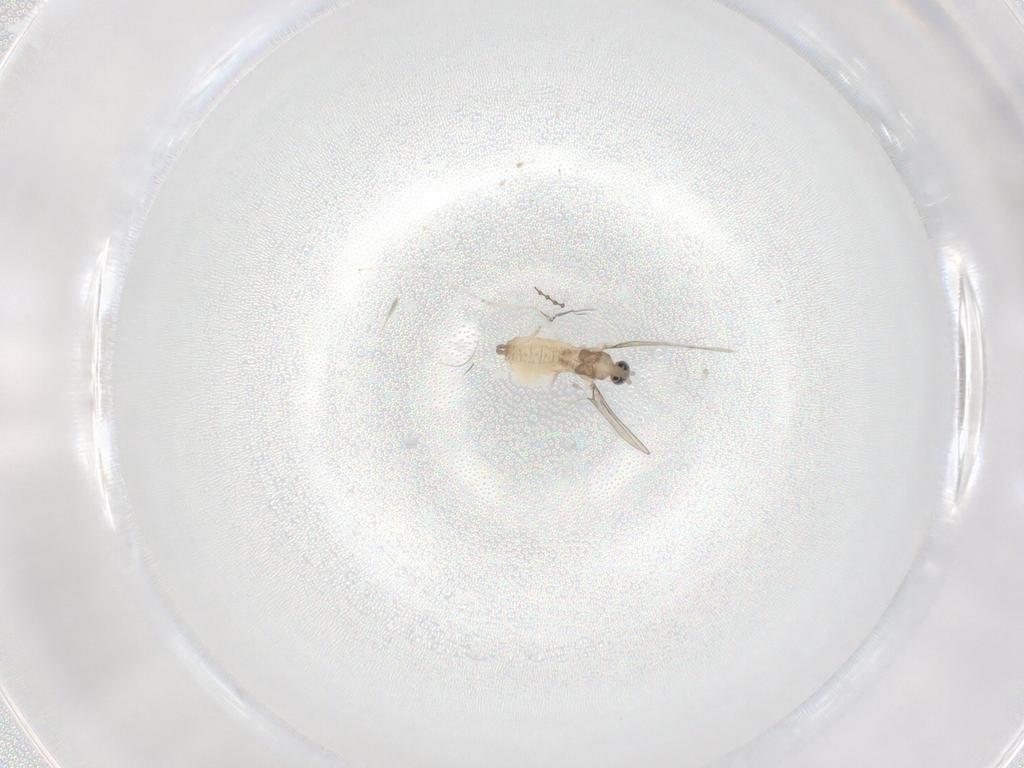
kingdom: Animalia
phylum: Arthropoda
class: Insecta
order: Diptera
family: Cecidomyiidae
